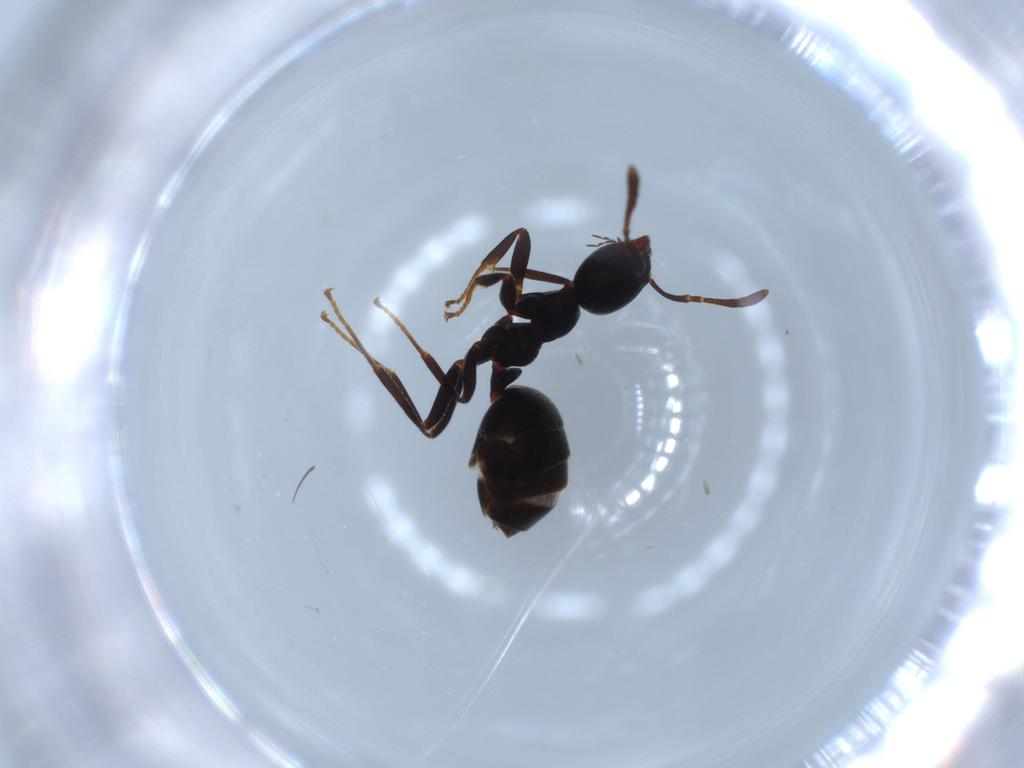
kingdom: Animalia
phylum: Arthropoda
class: Insecta
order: Hymenoptera
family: Formicidae
